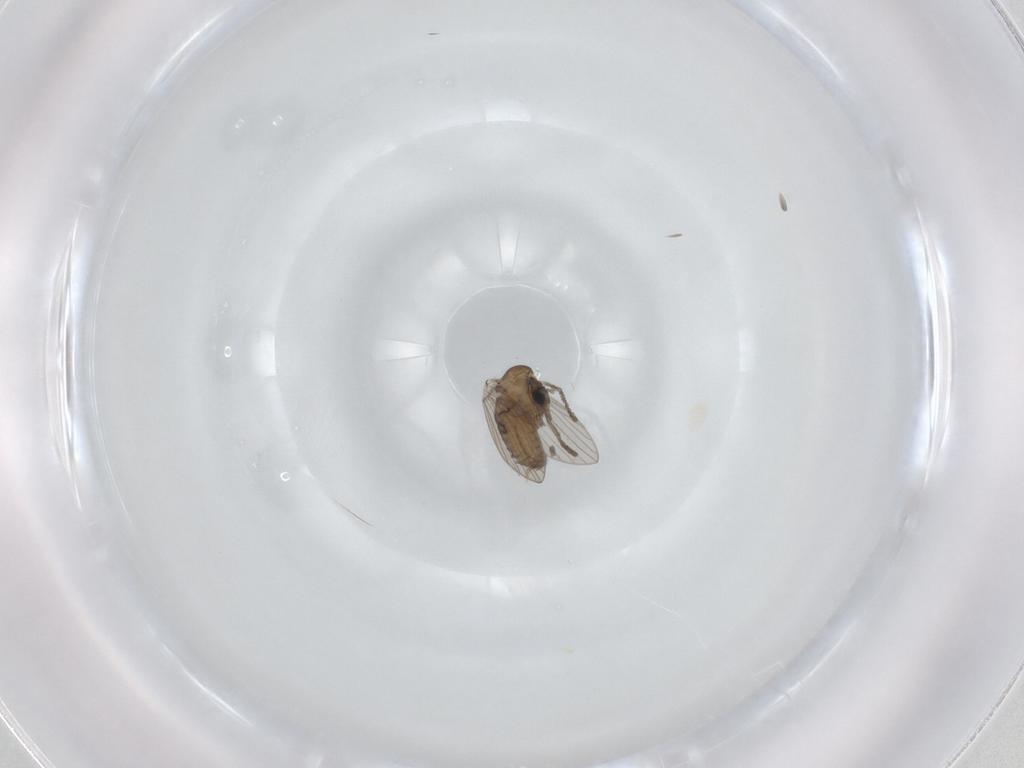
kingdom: Animalia
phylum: Arthropoda
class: Insecta
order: Diptera
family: Psychodidae
